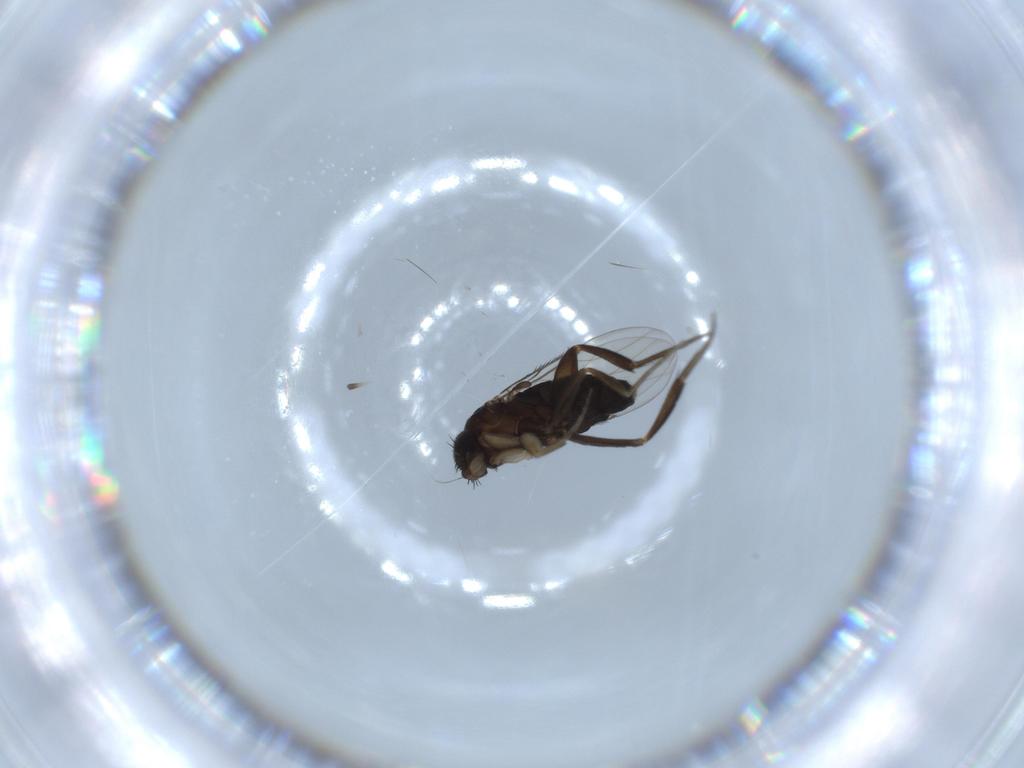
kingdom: Animalia
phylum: Arthropoda
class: Insecta
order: Diptera
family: Phoridae
